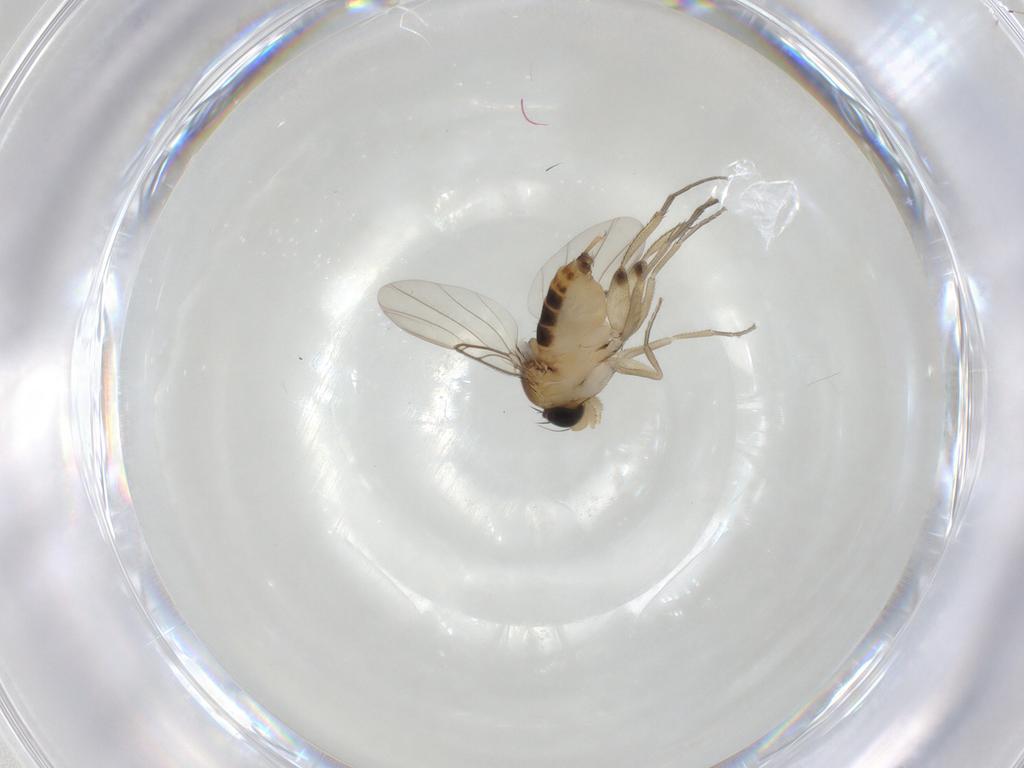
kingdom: Animalia
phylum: Arthropoda
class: Insecta
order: Diptera
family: Phoridae
